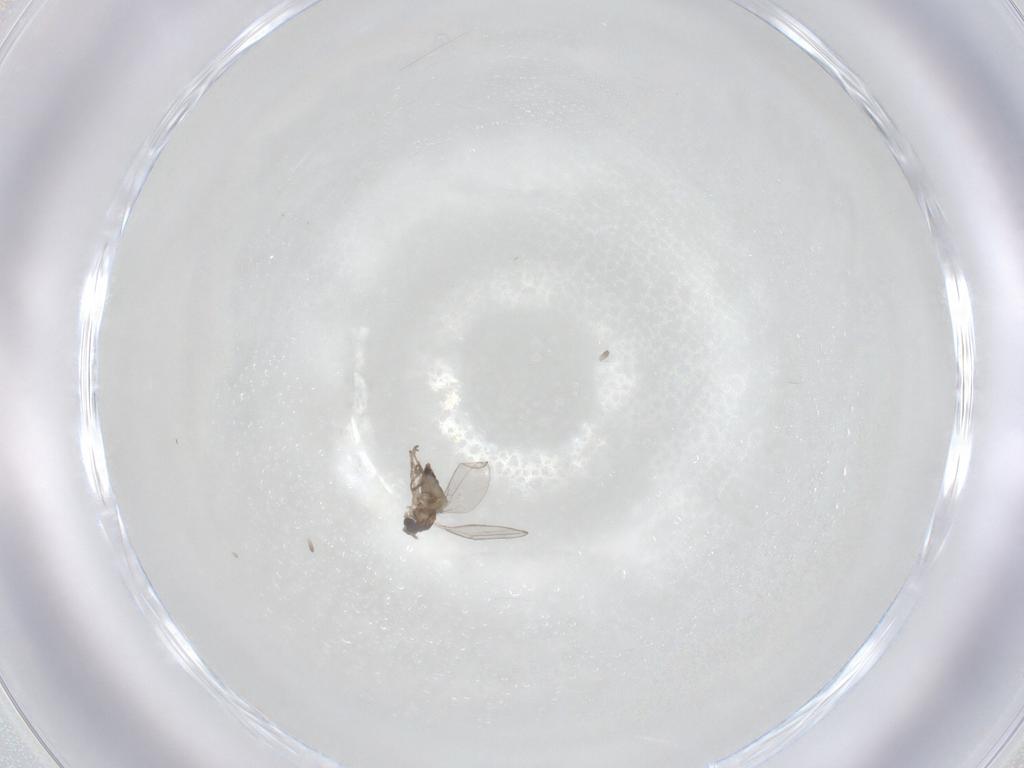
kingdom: Animalia
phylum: Arthropoda
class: Insecta
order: Diptera
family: Cecidomyiidae
